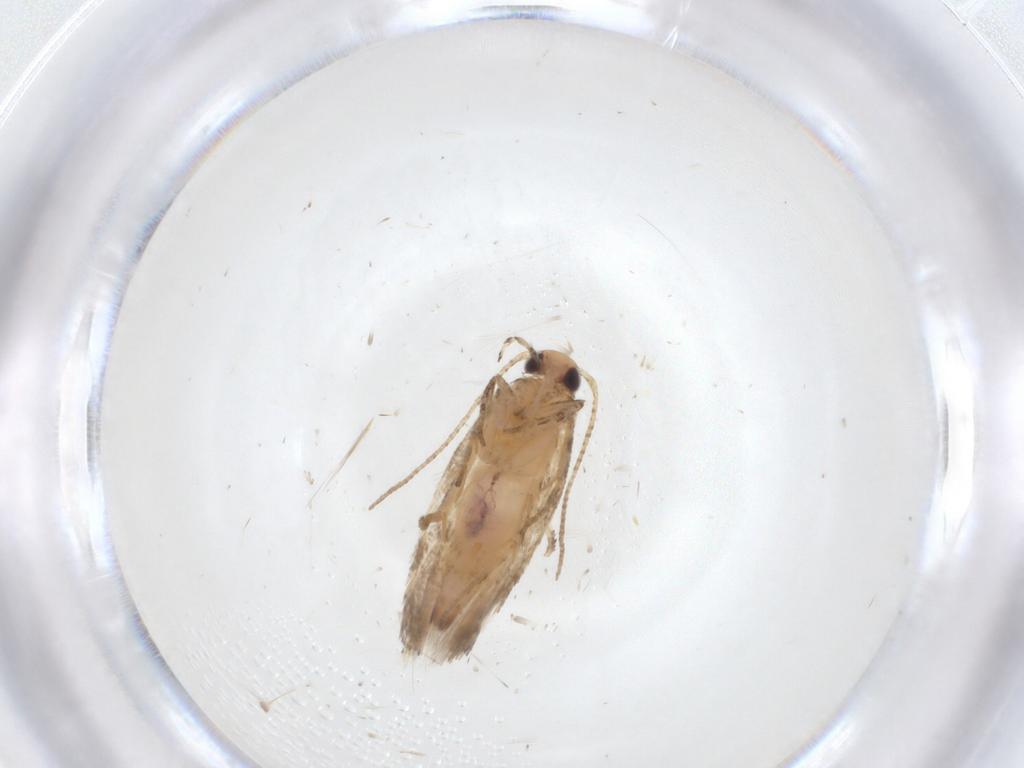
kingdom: Animalia
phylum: Arthropoda
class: Insecta
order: Lepidoptera
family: Gelechiidae
